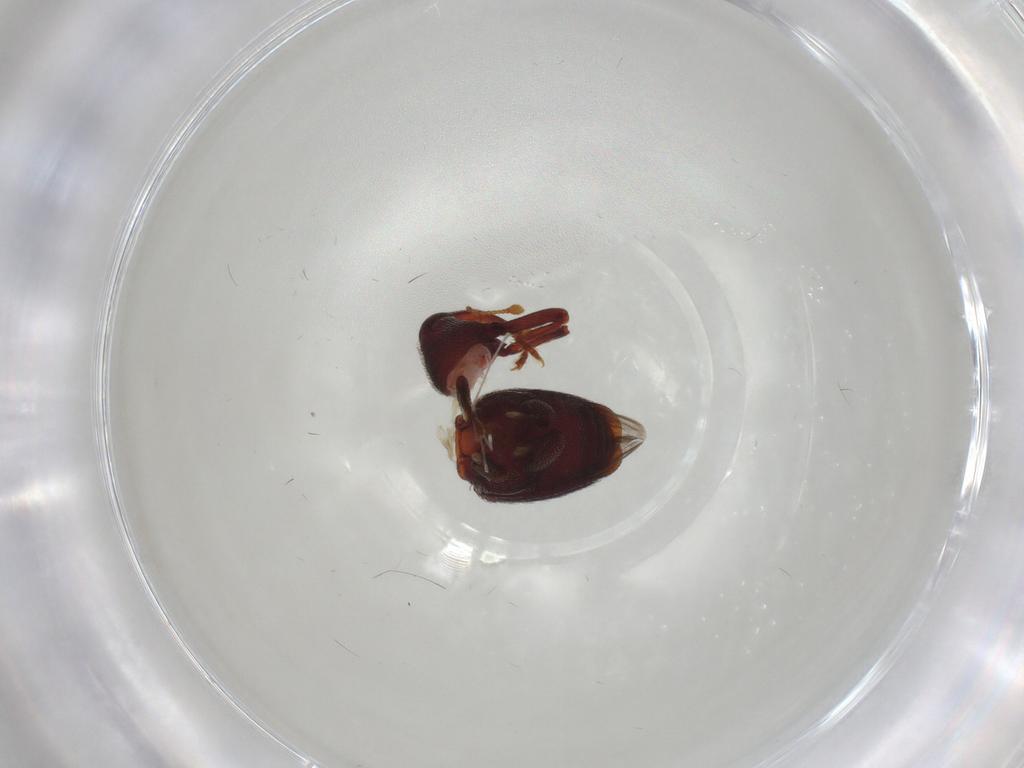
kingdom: Animalia
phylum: Arthropoda
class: Insecta
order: Coleoptera
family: Curculionidae
